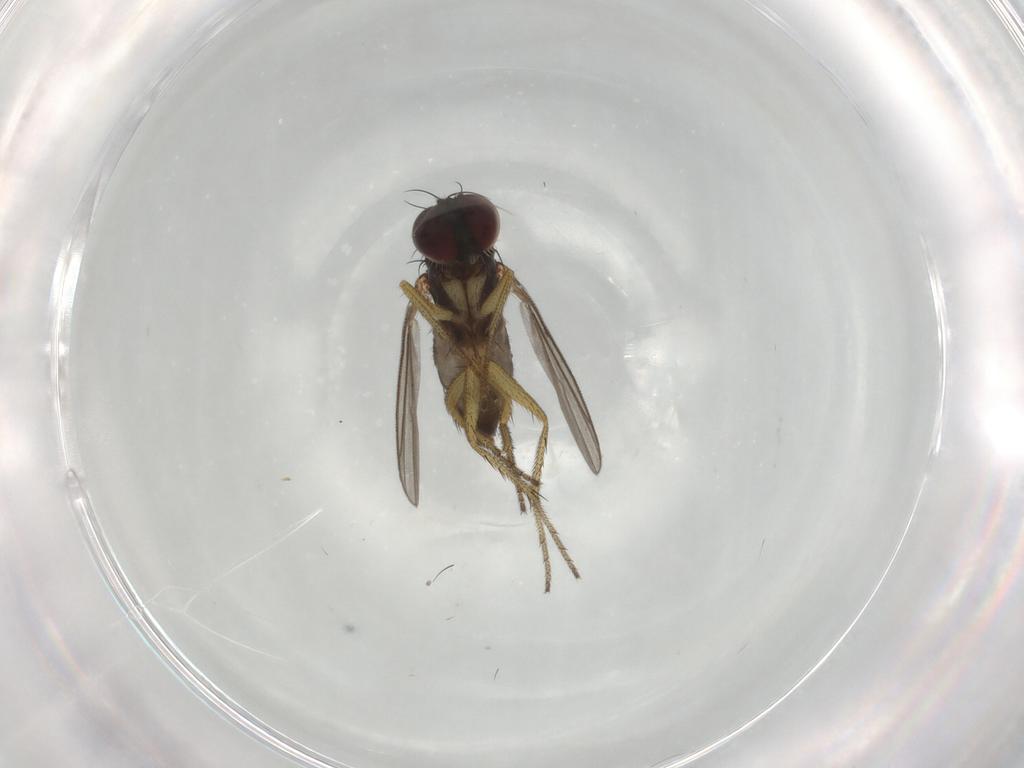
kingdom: Animalia
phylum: Arthropoda
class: Insecta
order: Diptera
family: Dolichopodidae
